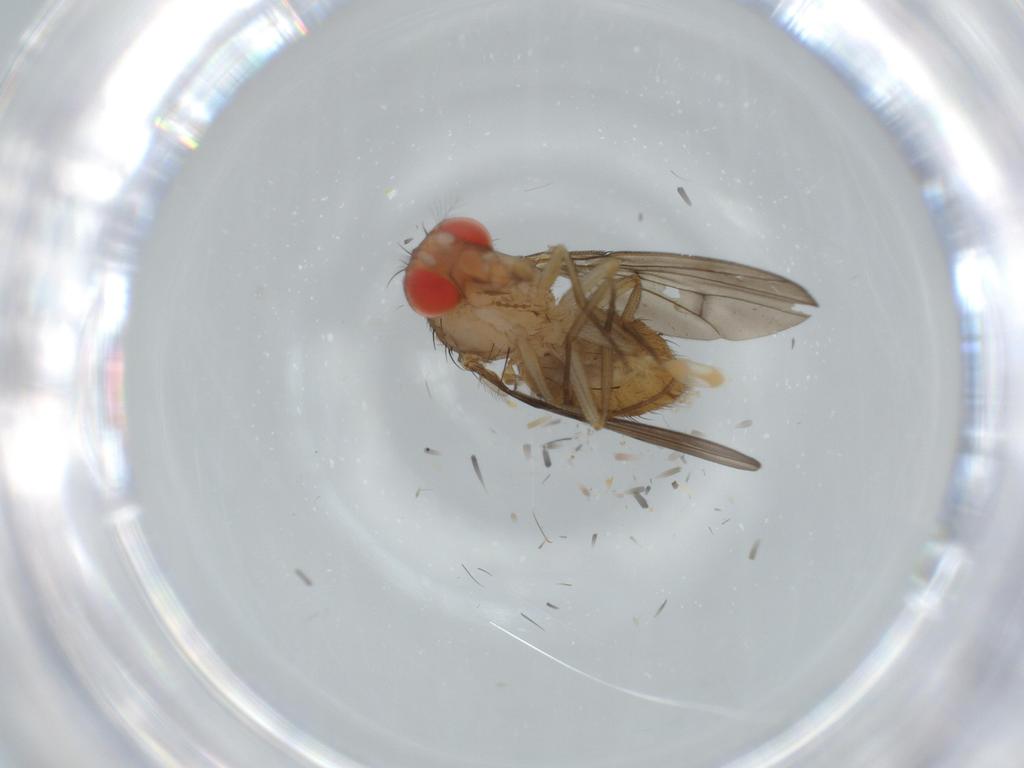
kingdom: Animalia
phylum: Arthropoda
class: Insecta
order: Diptera
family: Drosophilidae
